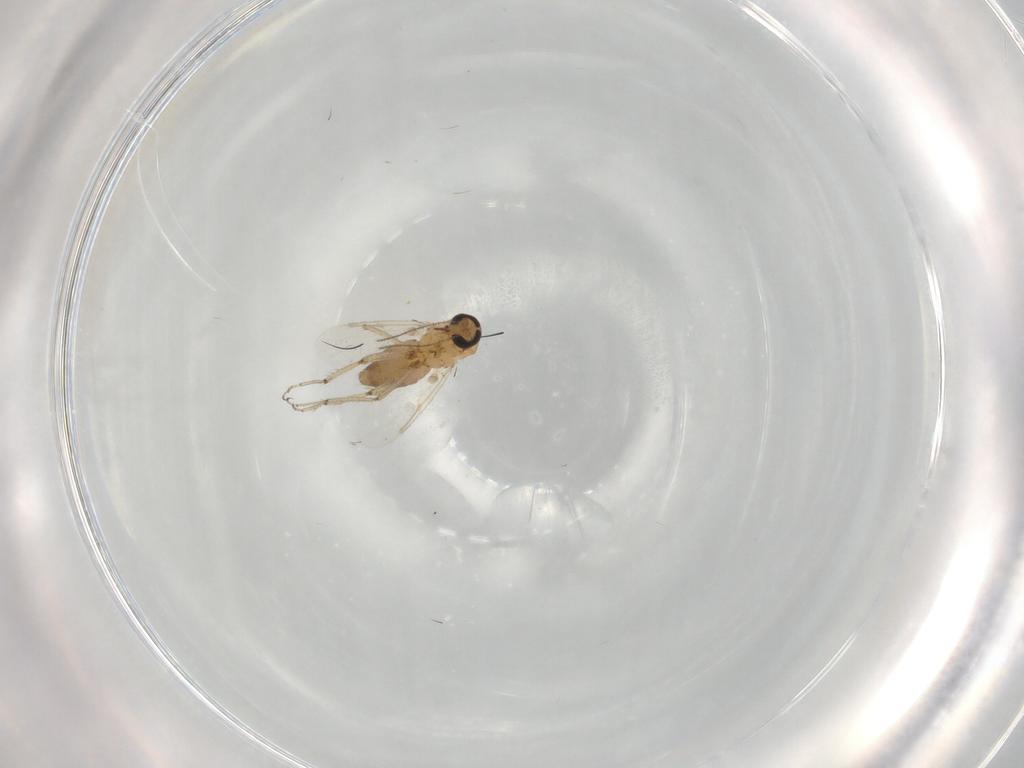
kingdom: Animalia
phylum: Arthropoda
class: Insecta
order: Diptera
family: Ceratopogonidae
